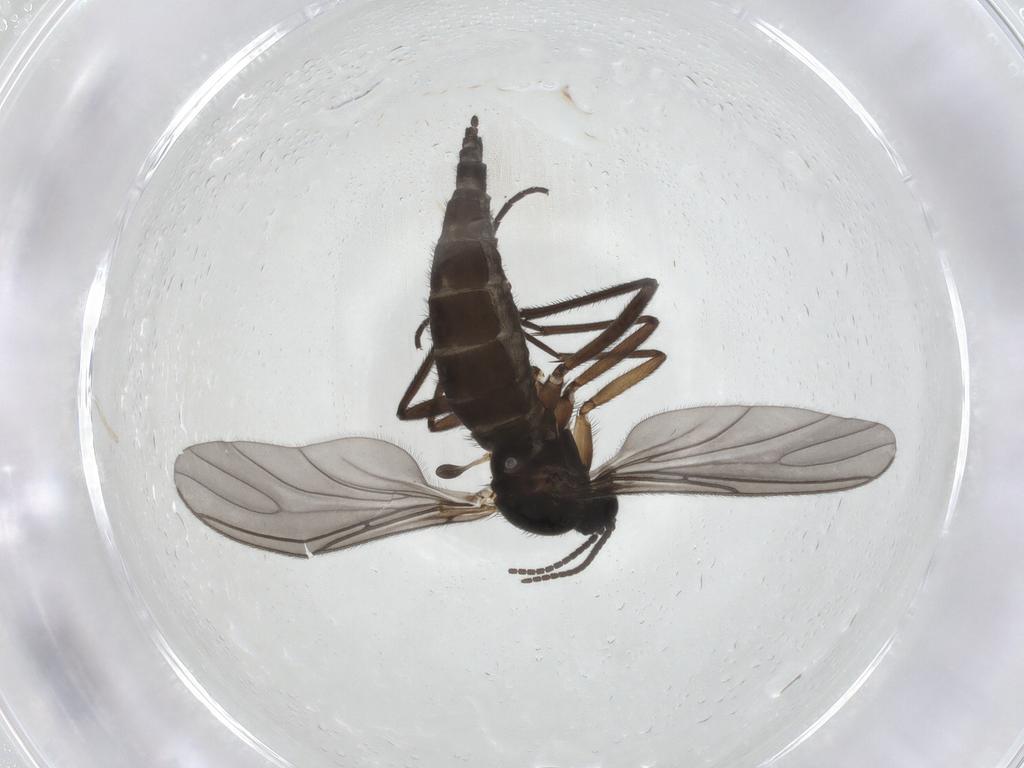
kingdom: Animalia
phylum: Arthropoda
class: Insecta
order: Diptera
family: Sciaridae
